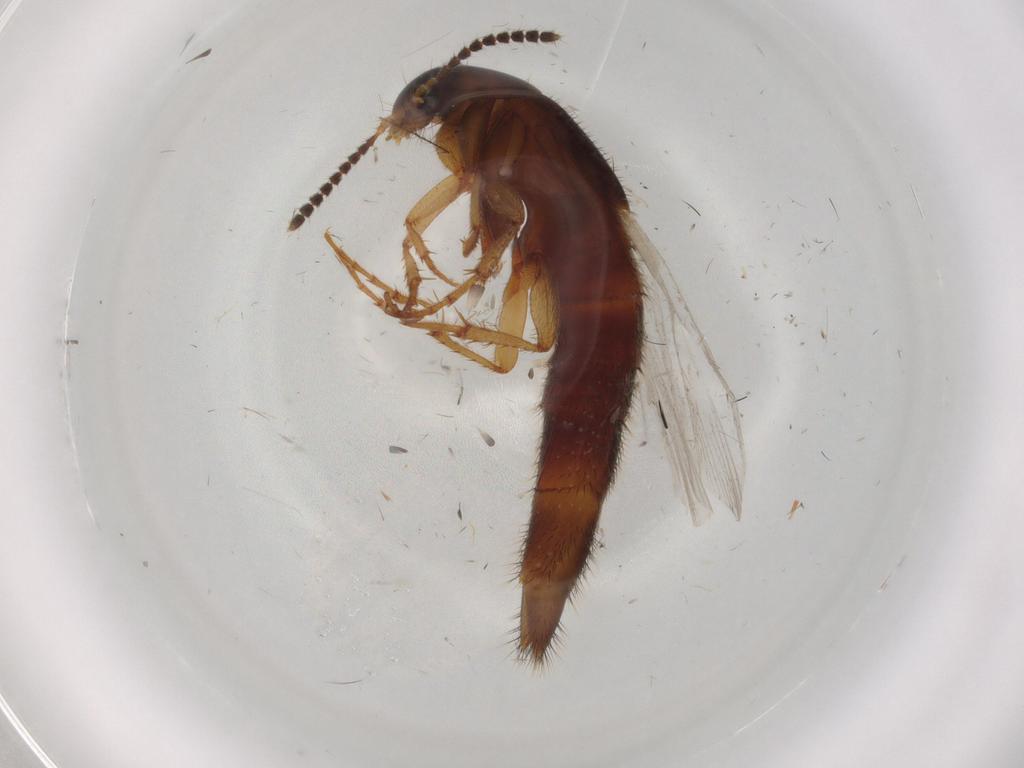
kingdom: Animalia
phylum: Arthropoda
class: Insecta
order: Coleoptera
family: Staphylinidae
